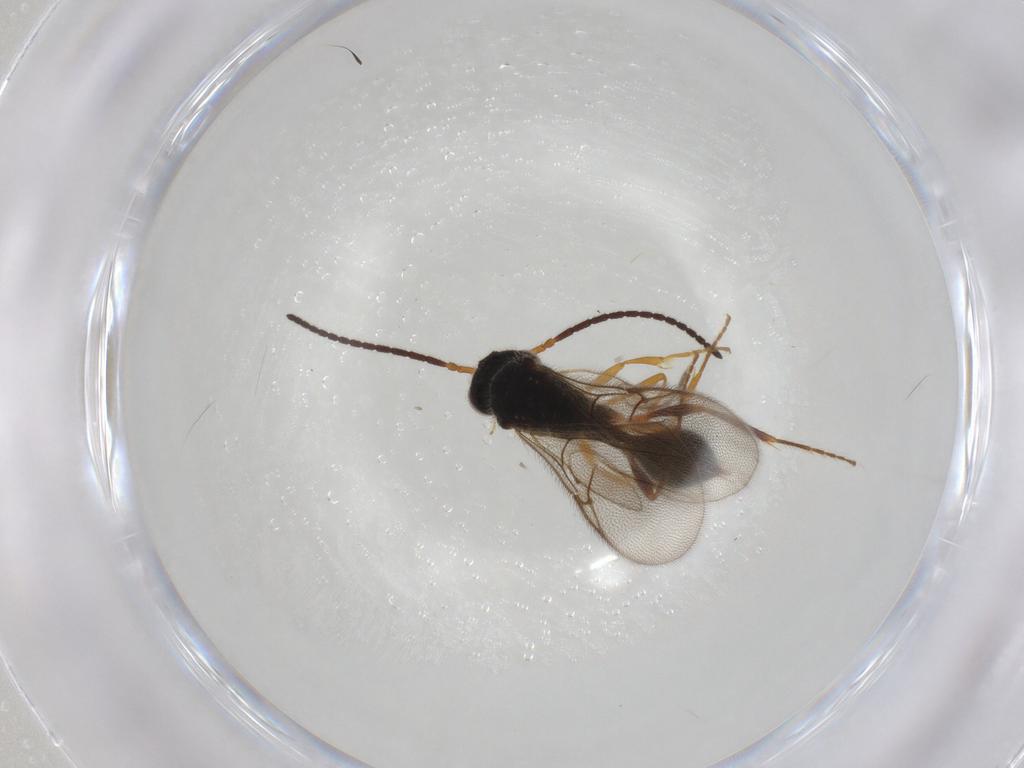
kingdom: Animalia
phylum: Arthropoda
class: Insecta
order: Hymenoptera
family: Diapriidae
